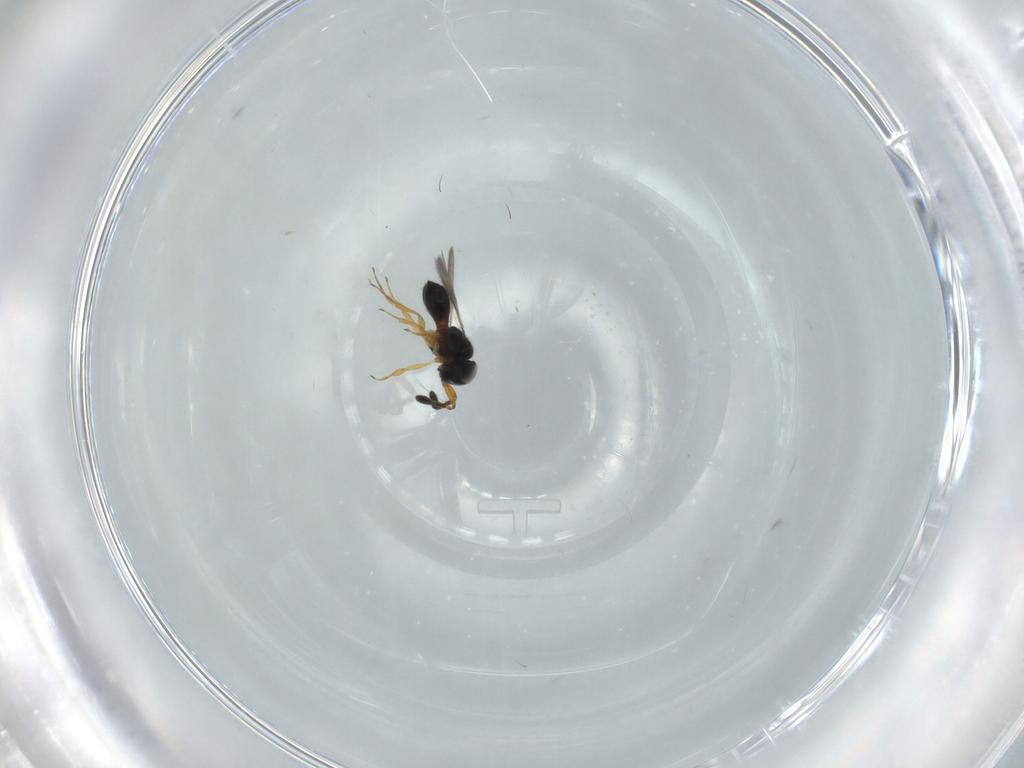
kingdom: Animalia
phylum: Arthropoda
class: Insecta
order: Hymenoptera
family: Scelionidae
